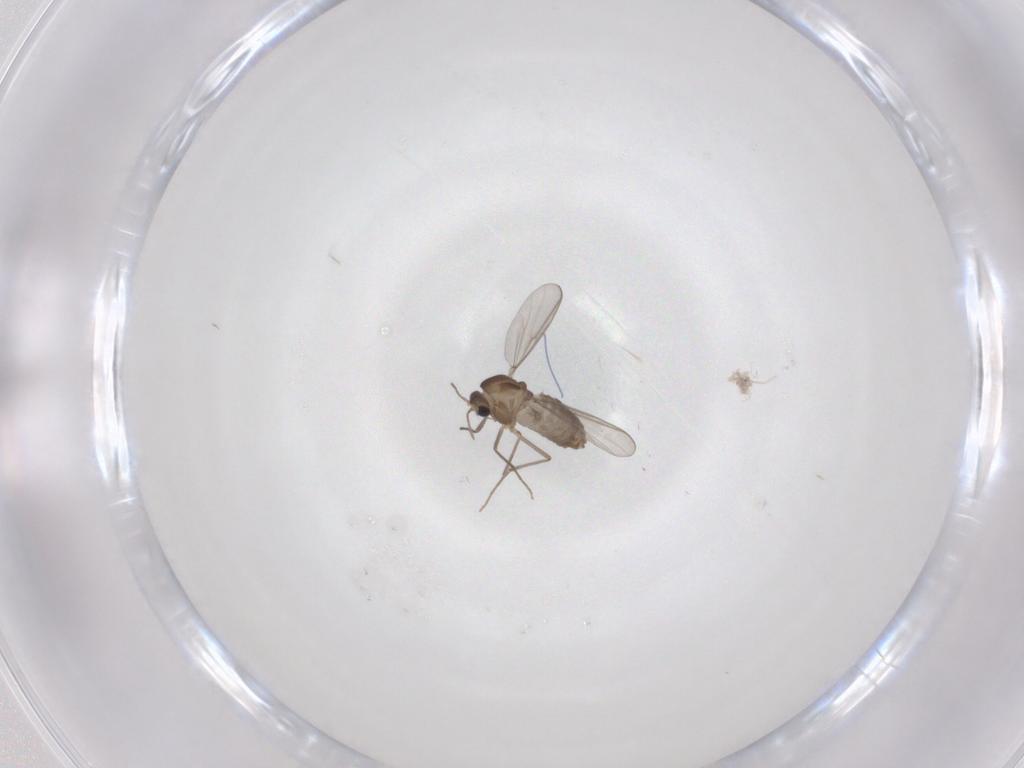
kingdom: Animalia
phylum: Arthropoda
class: Insecta
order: Diptera
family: Cecidomyiidae
